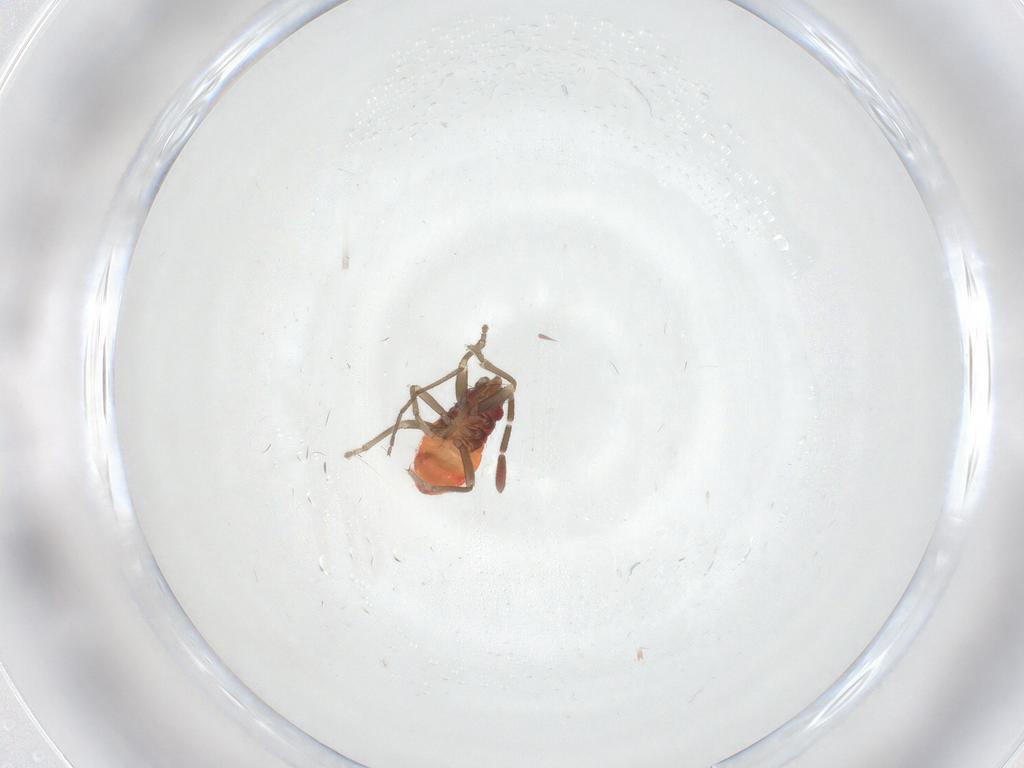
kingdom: Animalia
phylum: Arthropoda
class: Insecta
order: Hemiptera
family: Rhyparochromidae
